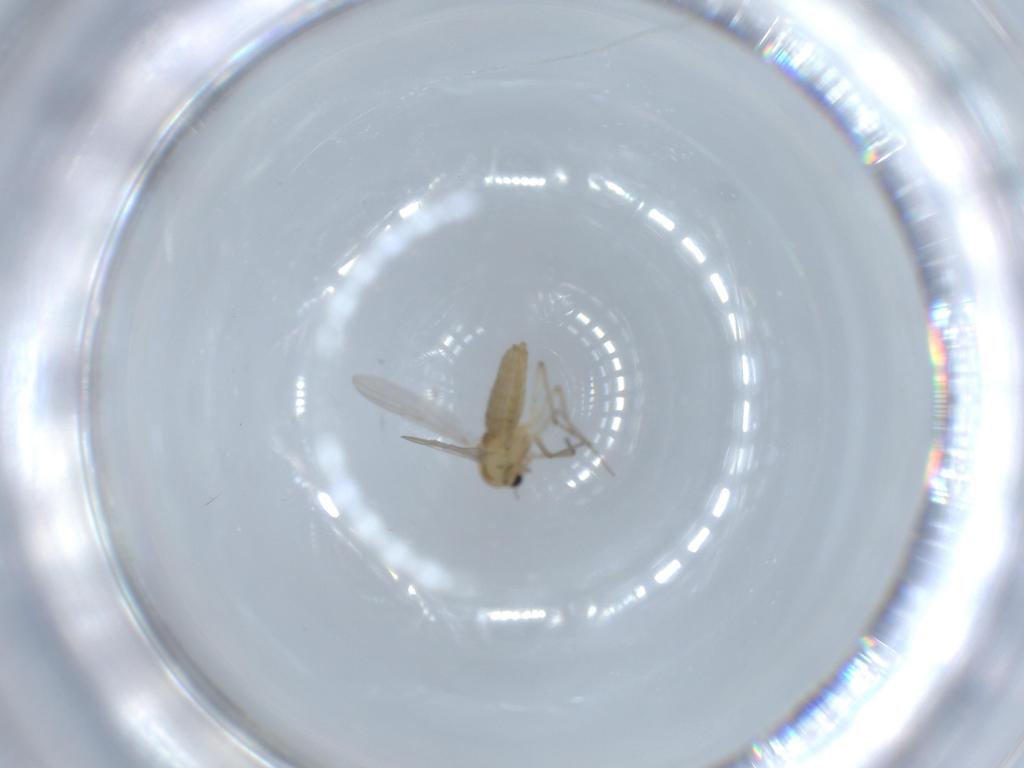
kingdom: Animalia
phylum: Arthropoda
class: Insecta
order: Diptera
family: Chironomidae
